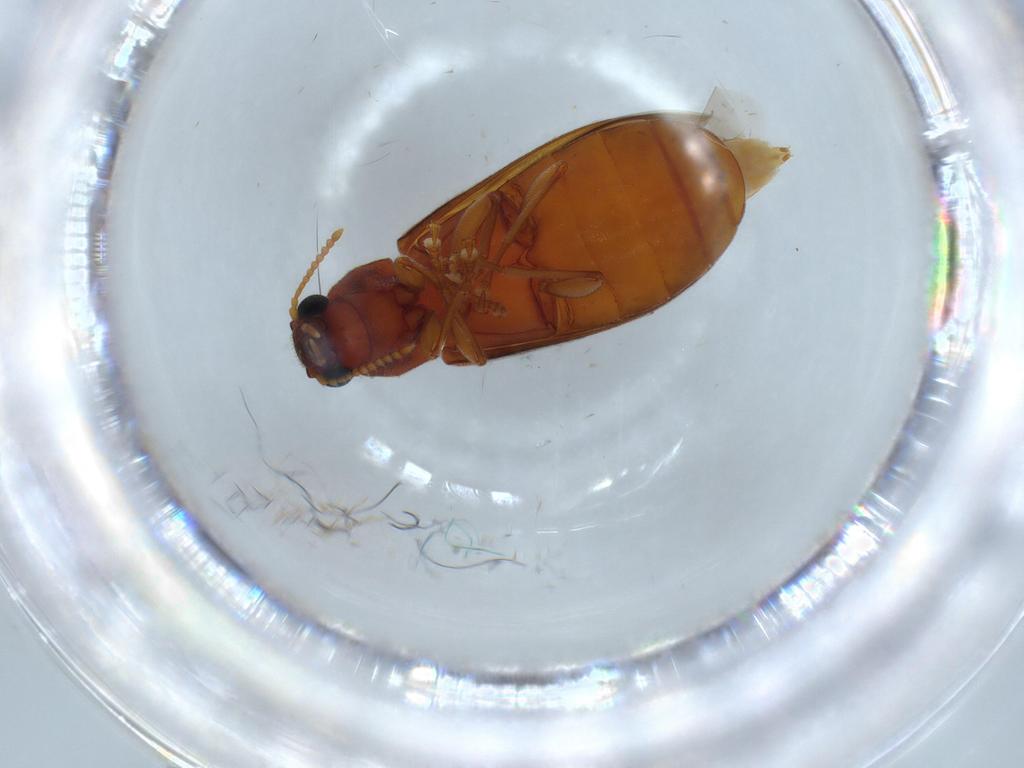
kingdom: Animalia
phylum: Arthropoda
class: Insecta
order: Coleoptera
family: Mycteridae
